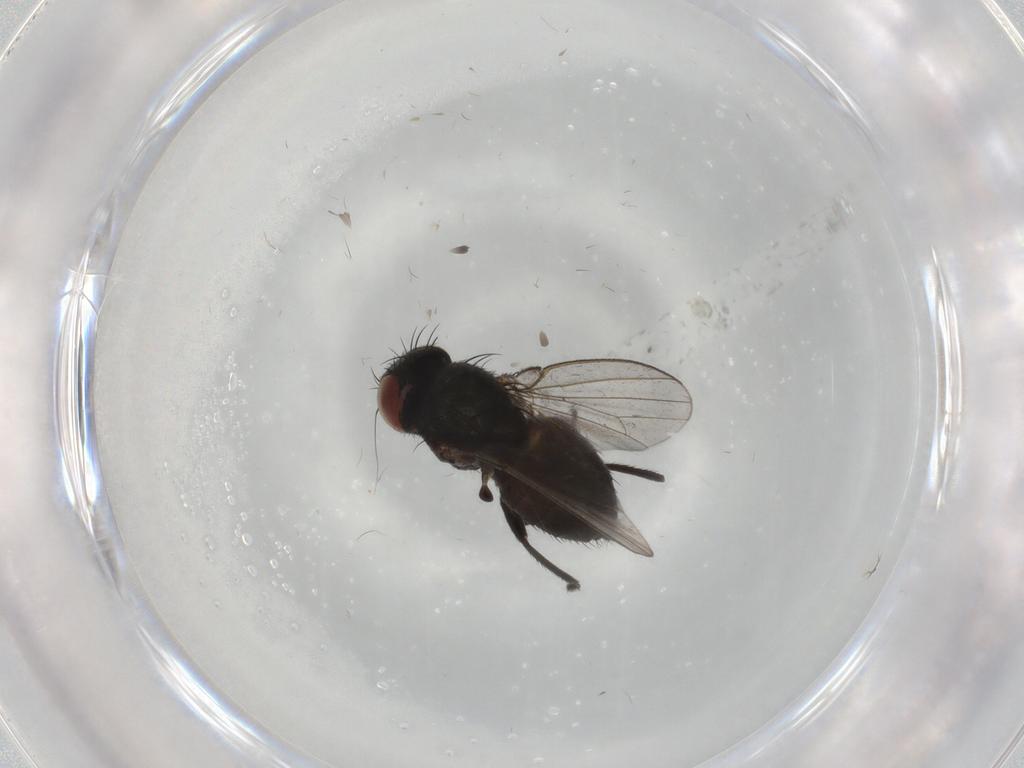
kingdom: Animalia
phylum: Arthropoda
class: Insecta
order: Diptera
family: Milichiidae
